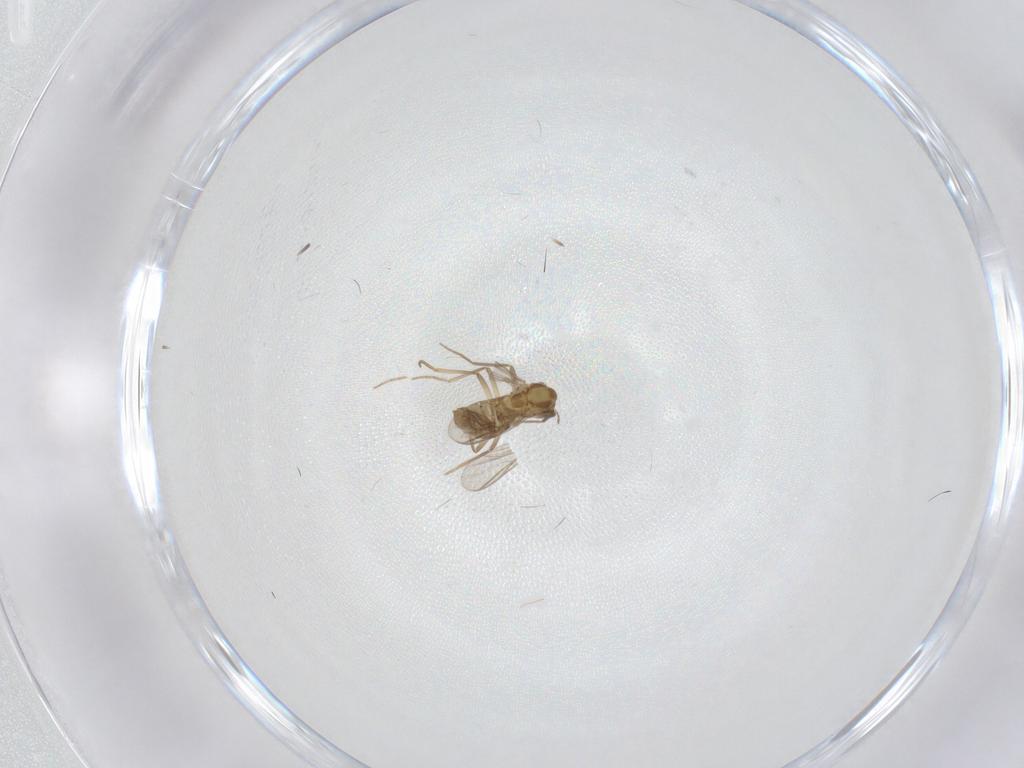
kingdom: Animalia
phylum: Arthropoda
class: Insecta
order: Diptera
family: Chironomidae
